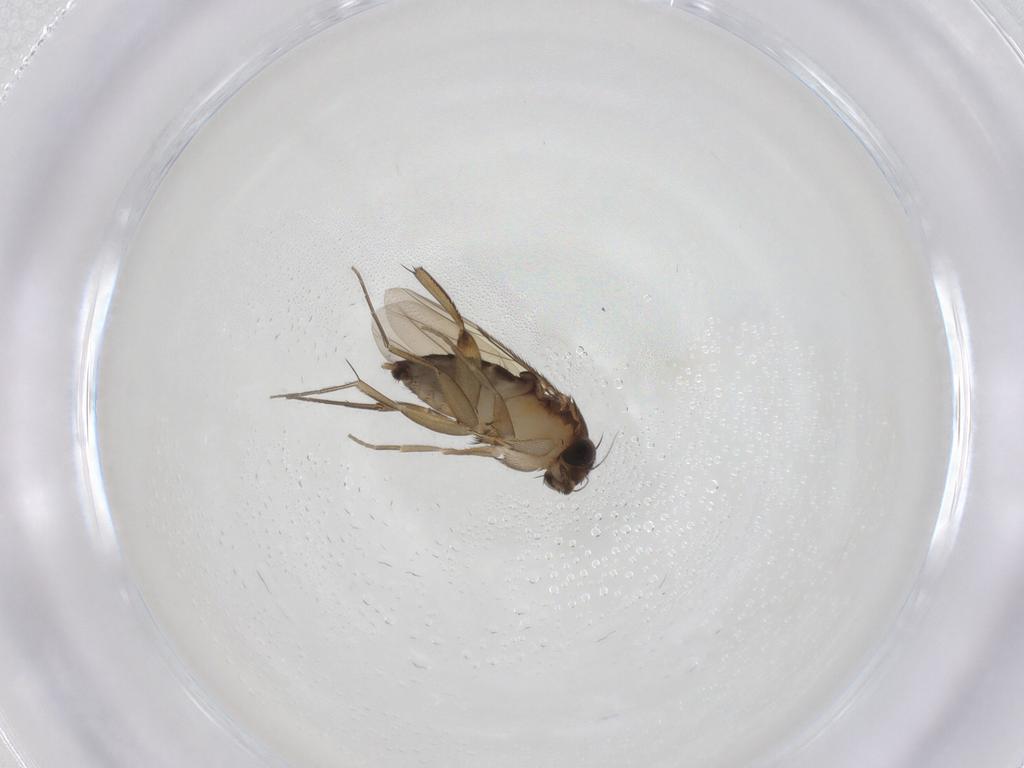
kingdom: Animalia
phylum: Arthropoda
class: Insecta
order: Diptera
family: Phoridae
